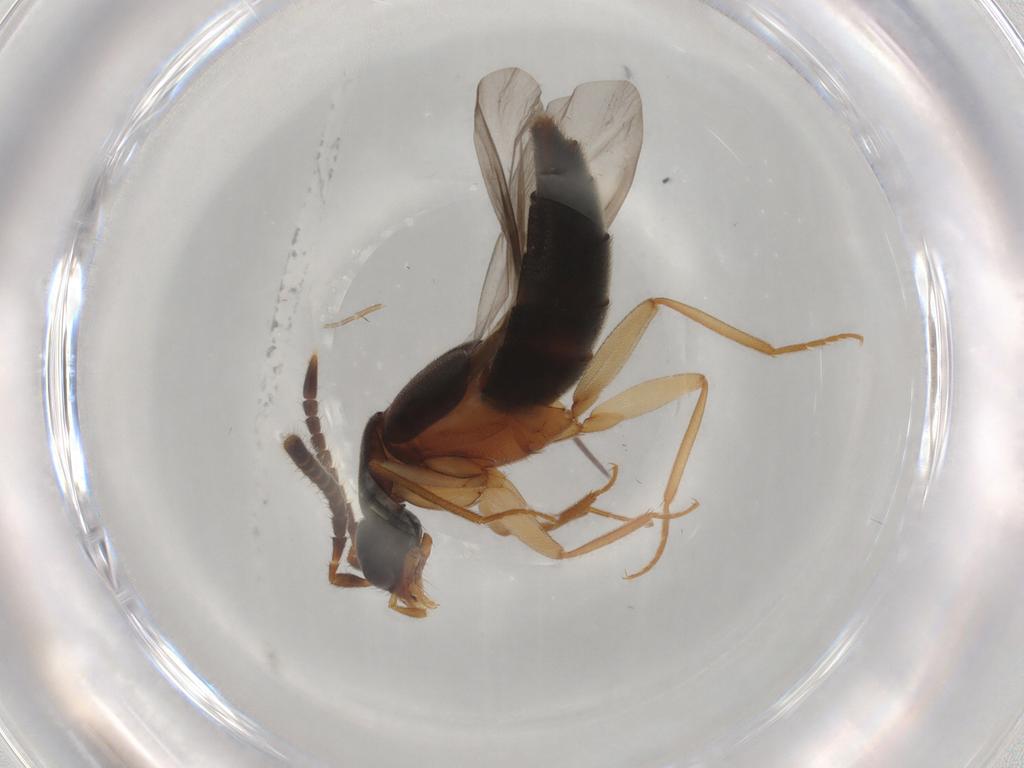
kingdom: Animalia
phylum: Arthropoda
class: Insecta
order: Coleoptera
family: Staphylinidae
